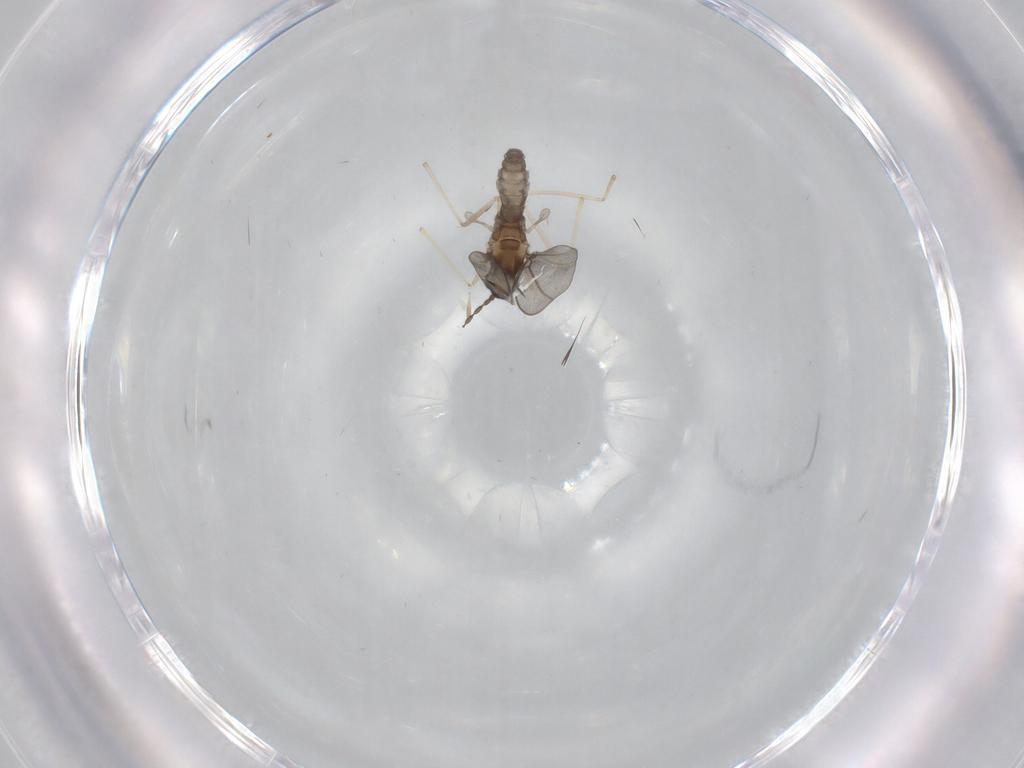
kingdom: Animalia
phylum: Arthropoda
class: Insecta
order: Diptera
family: Cecidomyiidae
